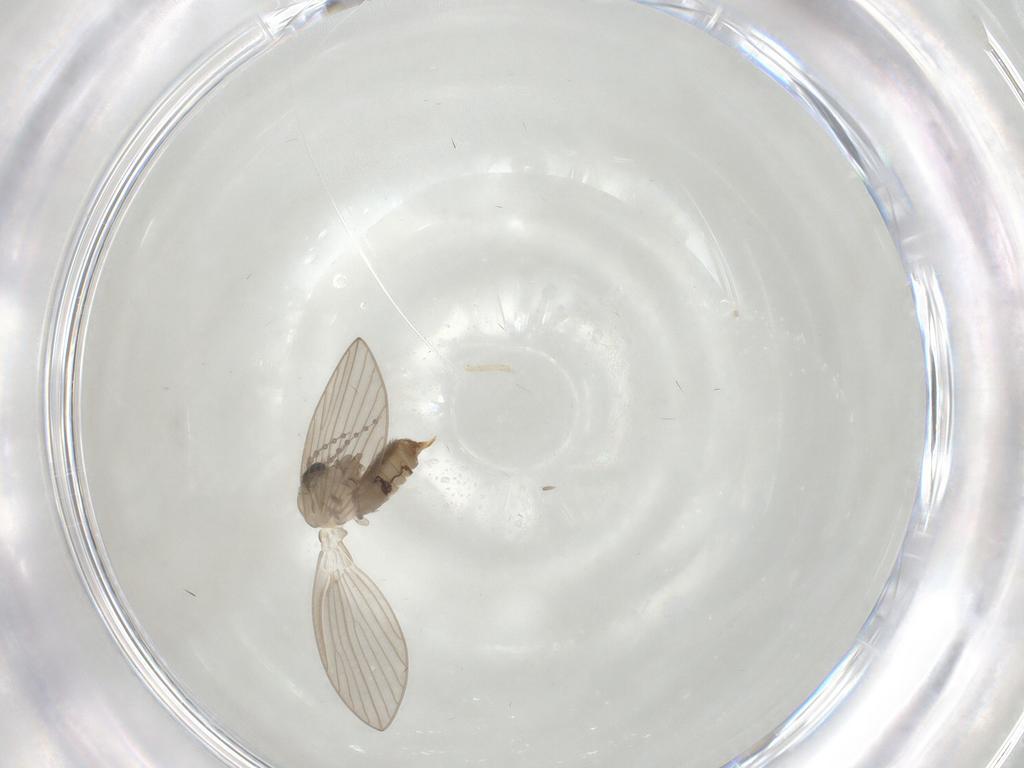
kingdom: Animalia
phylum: Arthropoda
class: Insecta
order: Diptera
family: Psychodidae
